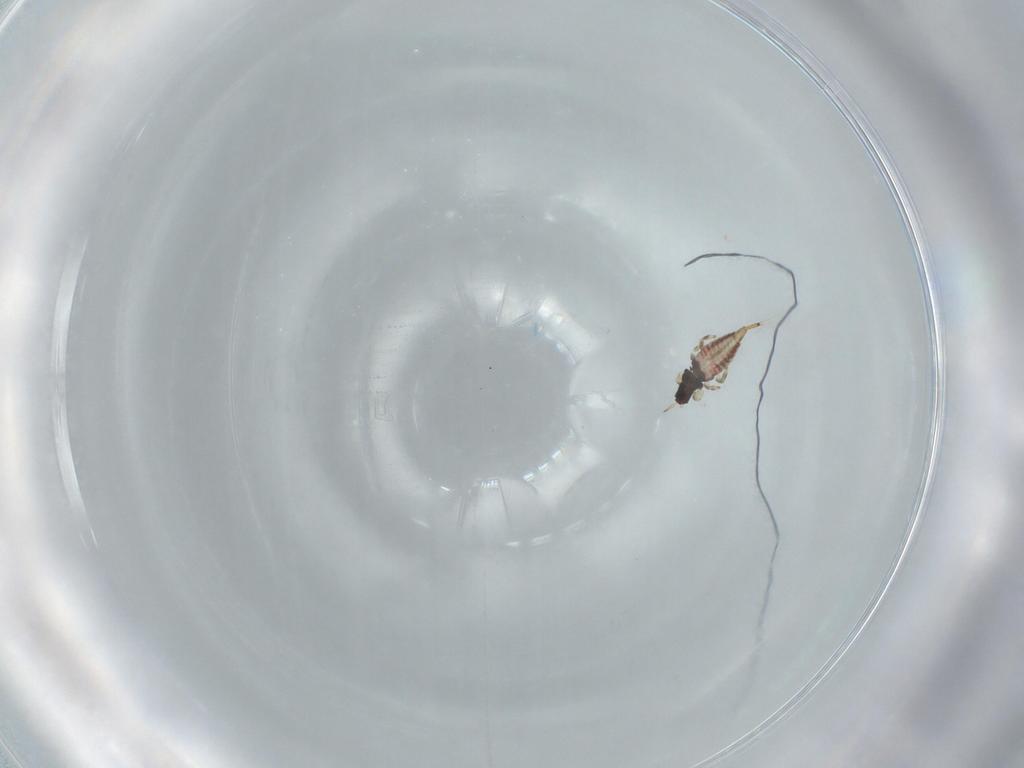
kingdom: Animalia
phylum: Arthropoda
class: Insecta
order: Thysanoptera
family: Phlaeothripidae
